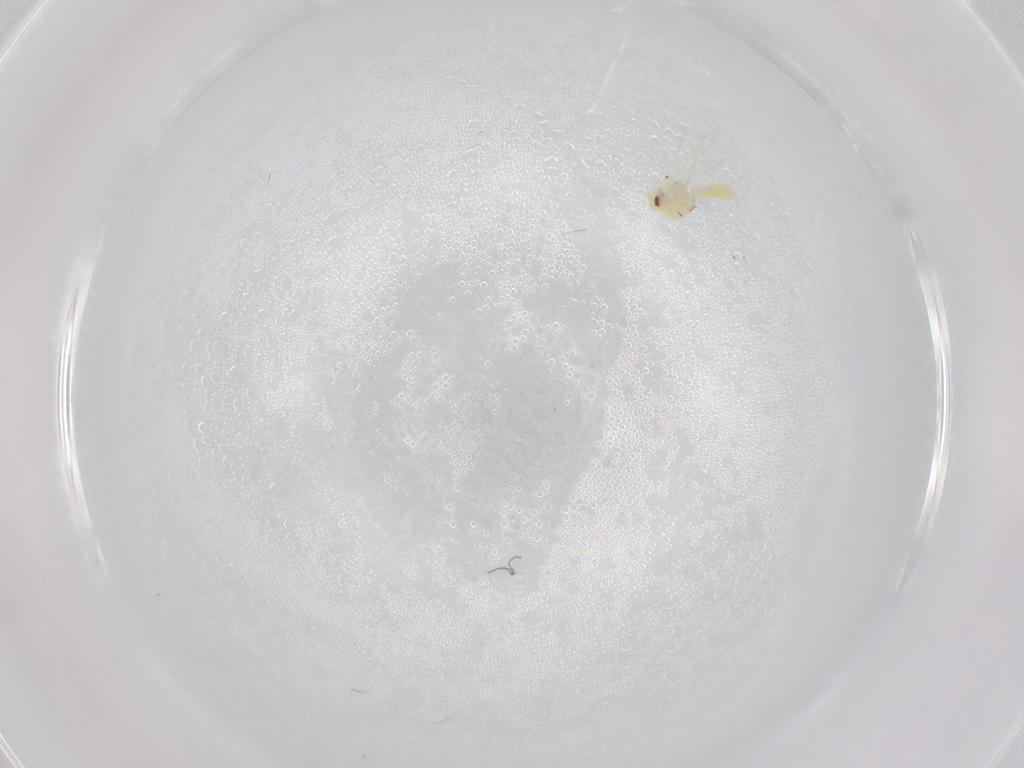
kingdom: Animalia
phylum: Arthropoda
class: Insecta
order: Hemiptera
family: Aleyrodidae
